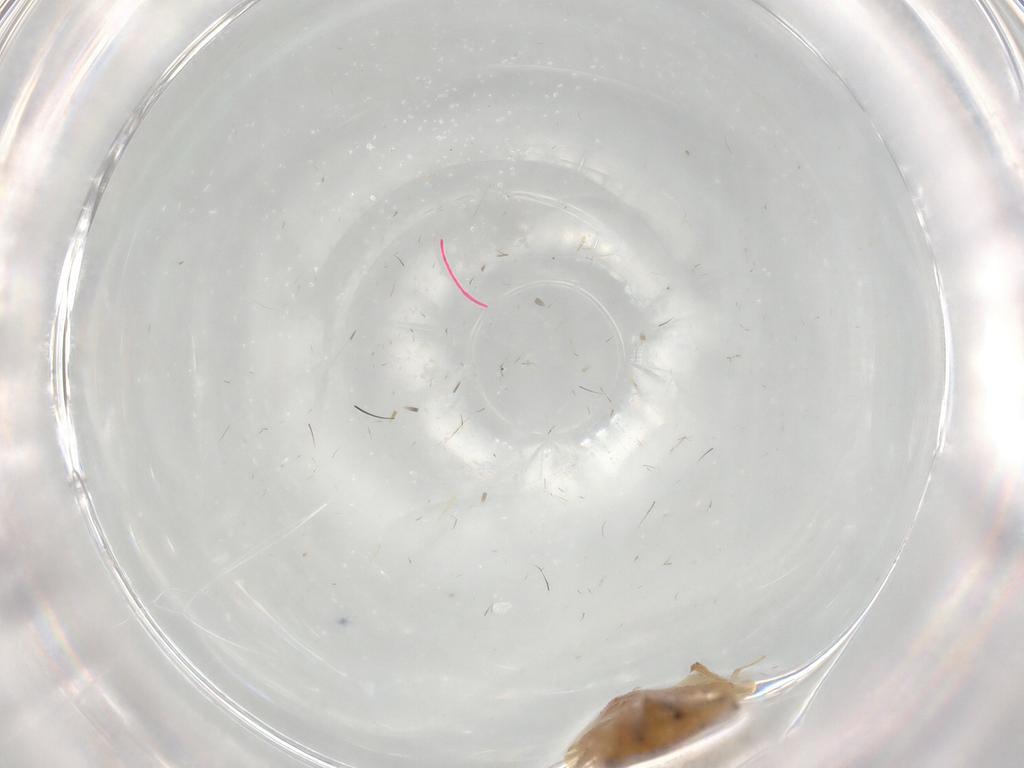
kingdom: Animalia
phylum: Arthropoda
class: Insecta
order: Hemiptera
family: Lasiochilidae
